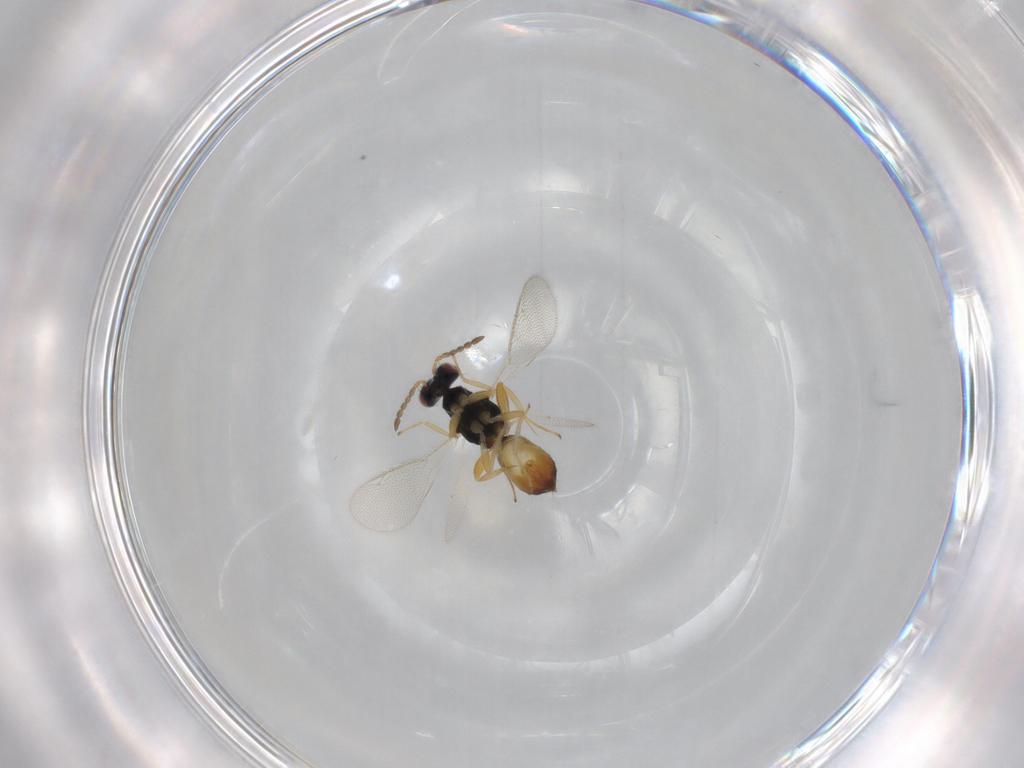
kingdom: Animalia
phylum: Arthropoda
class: Insecta
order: Hymenoptera
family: Eulophidae
